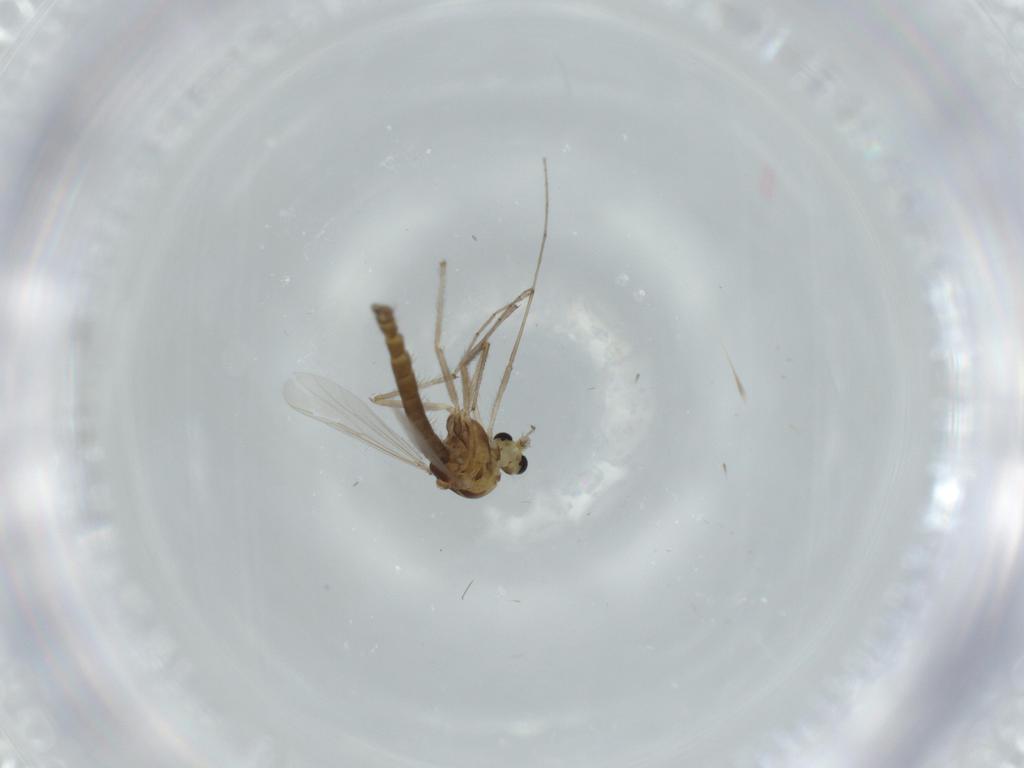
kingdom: Animalia
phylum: Arthropoda
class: Insecta
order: Diptera
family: Chironomidae
